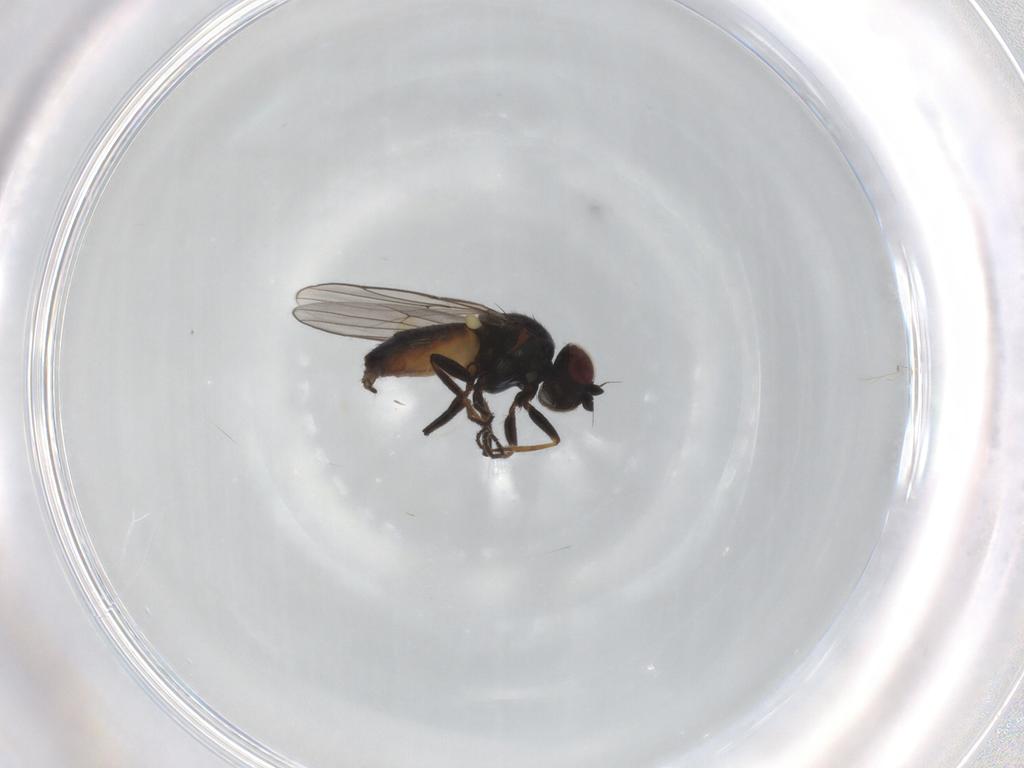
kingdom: Animalia
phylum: Arthropoda
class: Insecta
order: Diptera
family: Chloropidae
